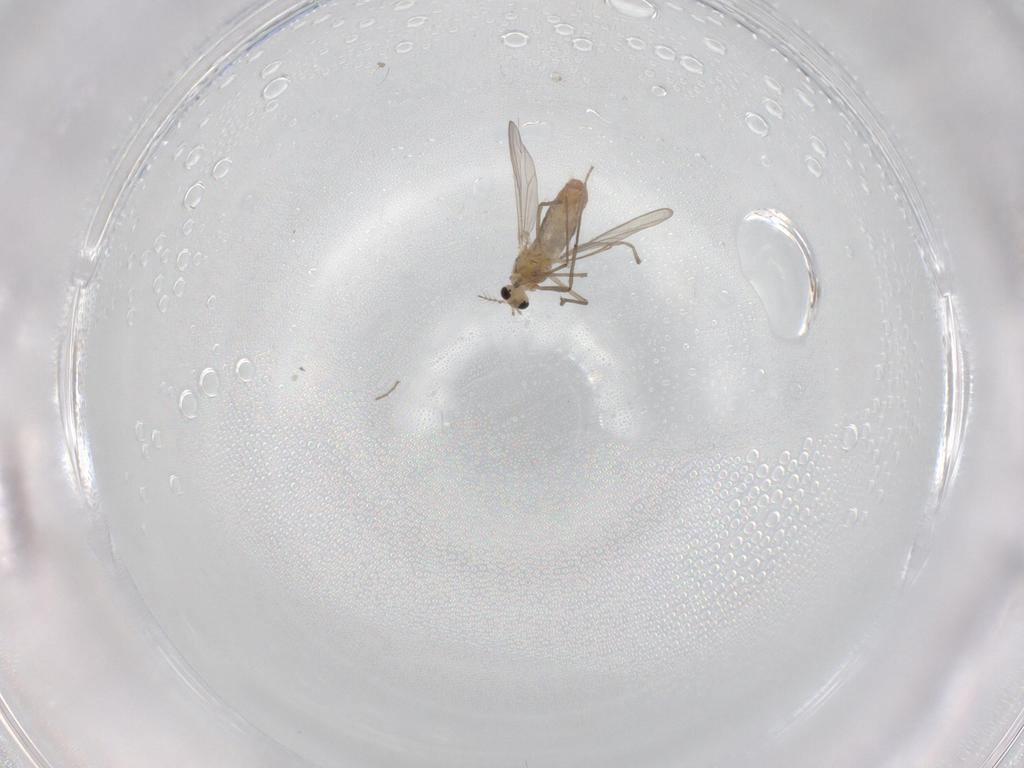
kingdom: Animalia
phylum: Arthropoda
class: Insecta
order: Diptera
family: Chironomidae
